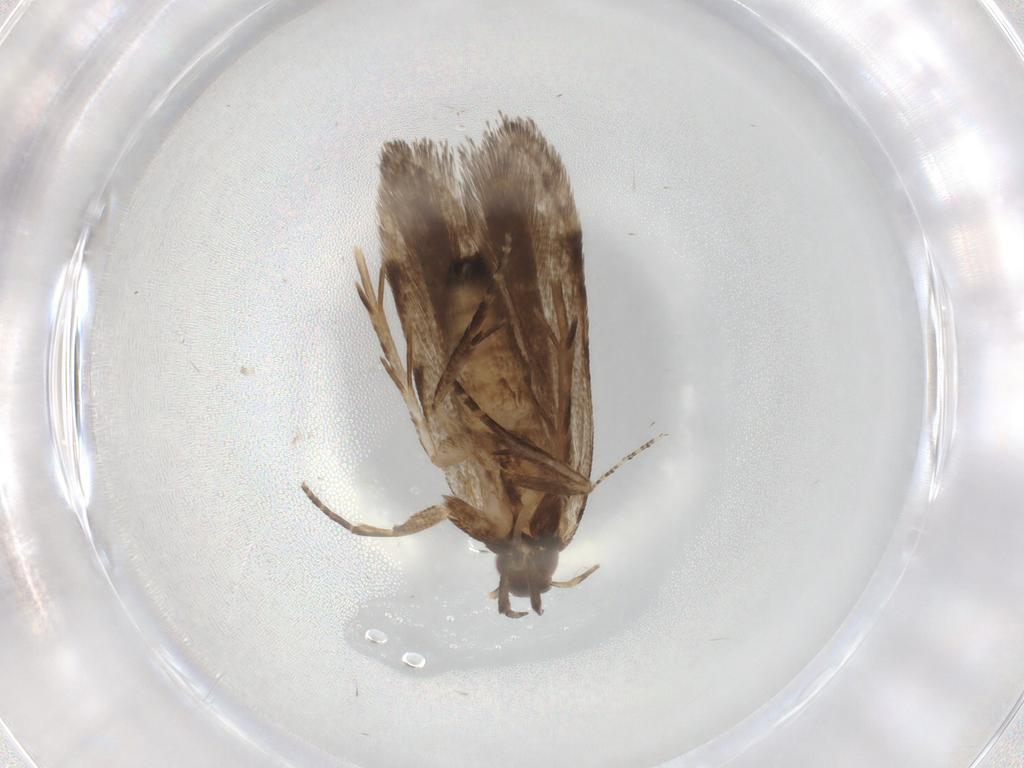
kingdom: Animalia
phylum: Arthropoda
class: Insecta
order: Lepidoptera
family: Gelechiidae
